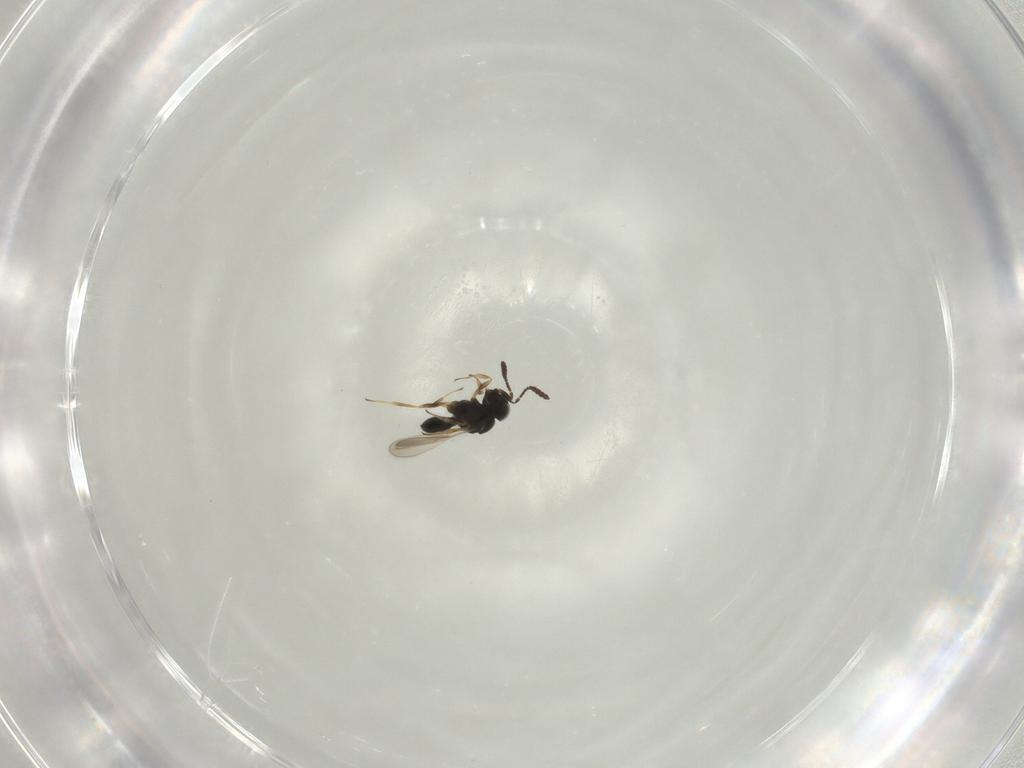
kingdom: Animalia
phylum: Arthropoda
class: Insecta
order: Hymenoptera
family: Scelionidae
